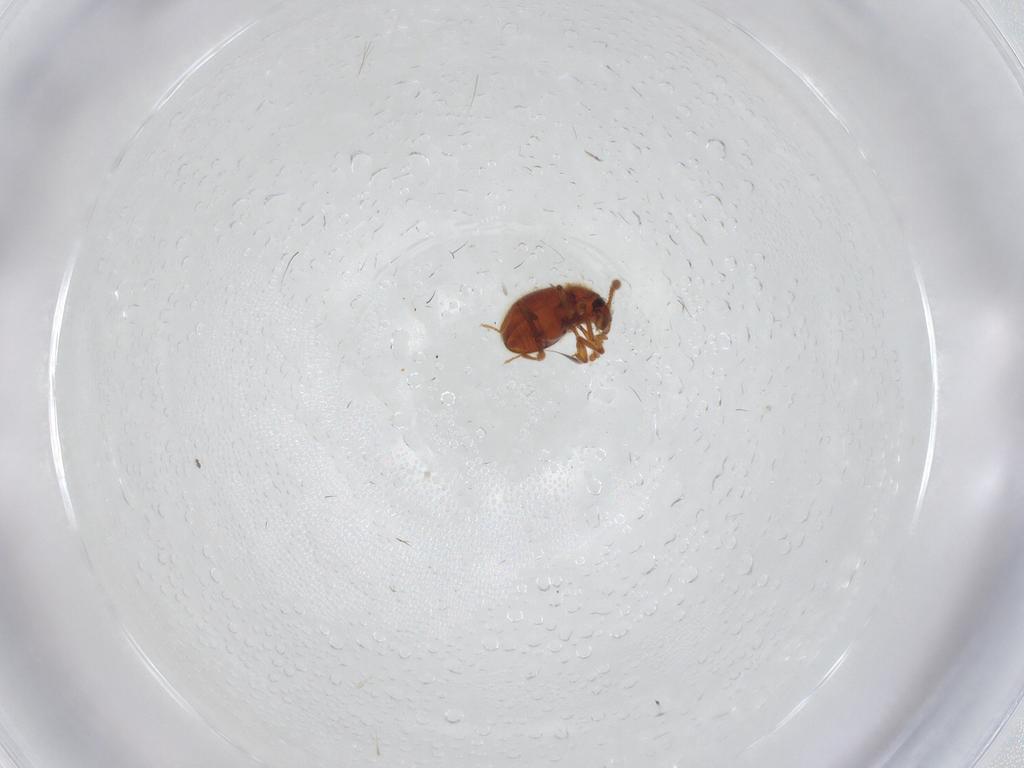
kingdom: Animalia
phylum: Arthropoda
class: Insecta
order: Coleoptera
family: Staphylinidae
